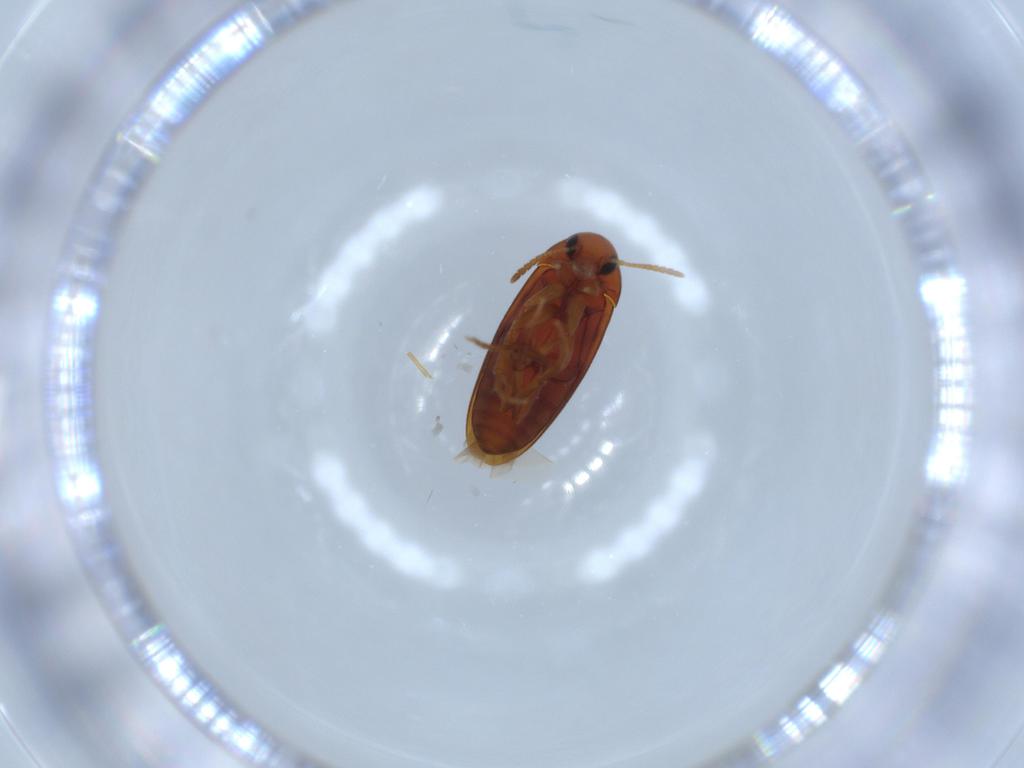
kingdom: Animalia
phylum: Arthropoda
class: Insecta
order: Coleoptera
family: Scraptiidae
